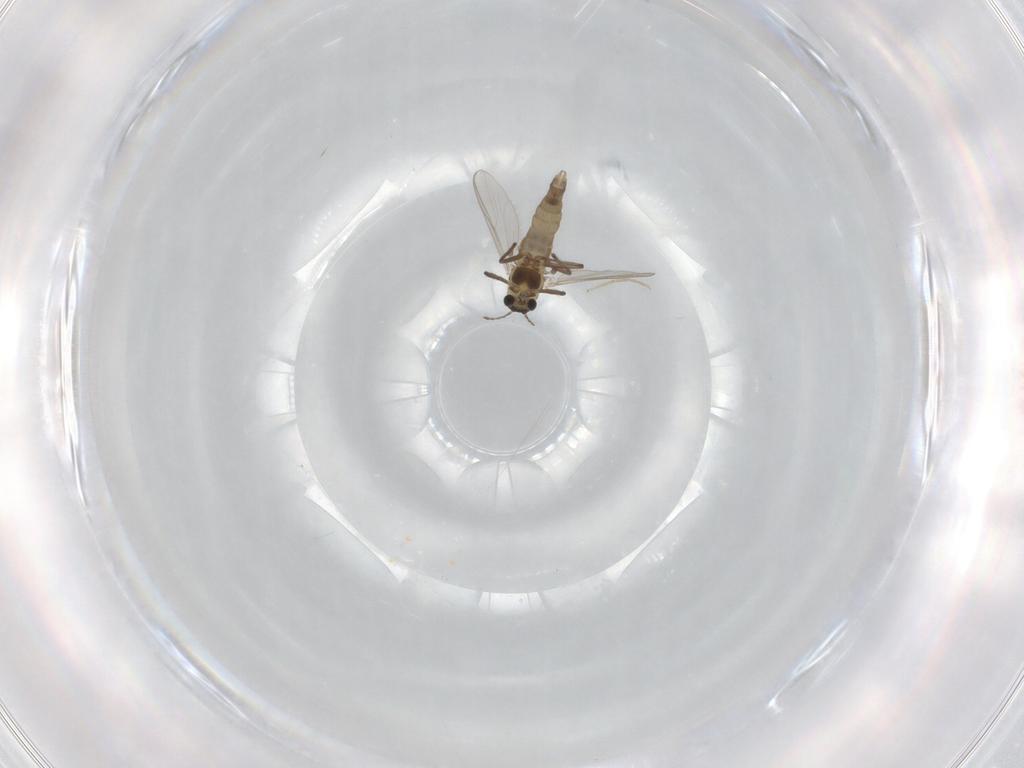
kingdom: Animalia
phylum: Arthropoda
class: Insecta
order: Diptera
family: Chironomidae
